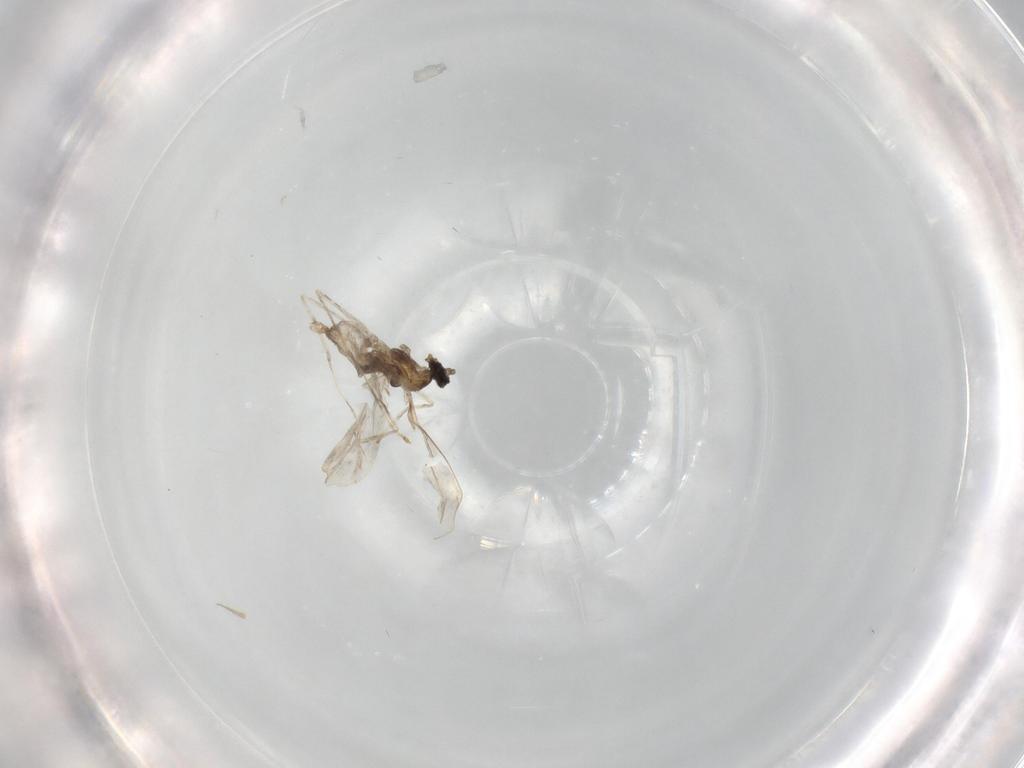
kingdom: Animalia
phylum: Arthropoda
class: Insecta
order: Diptera
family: Cecidomyiidae
